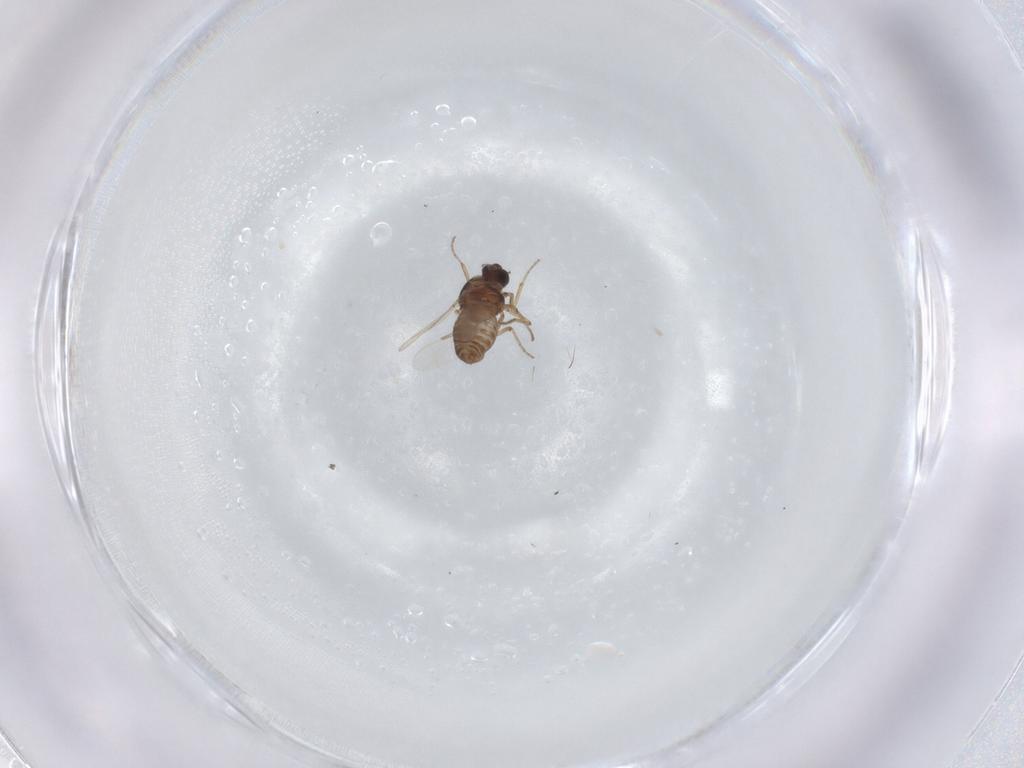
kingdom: Animalia
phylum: Arthropoda
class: Insecta
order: Diptera
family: Ceratopogonidae
